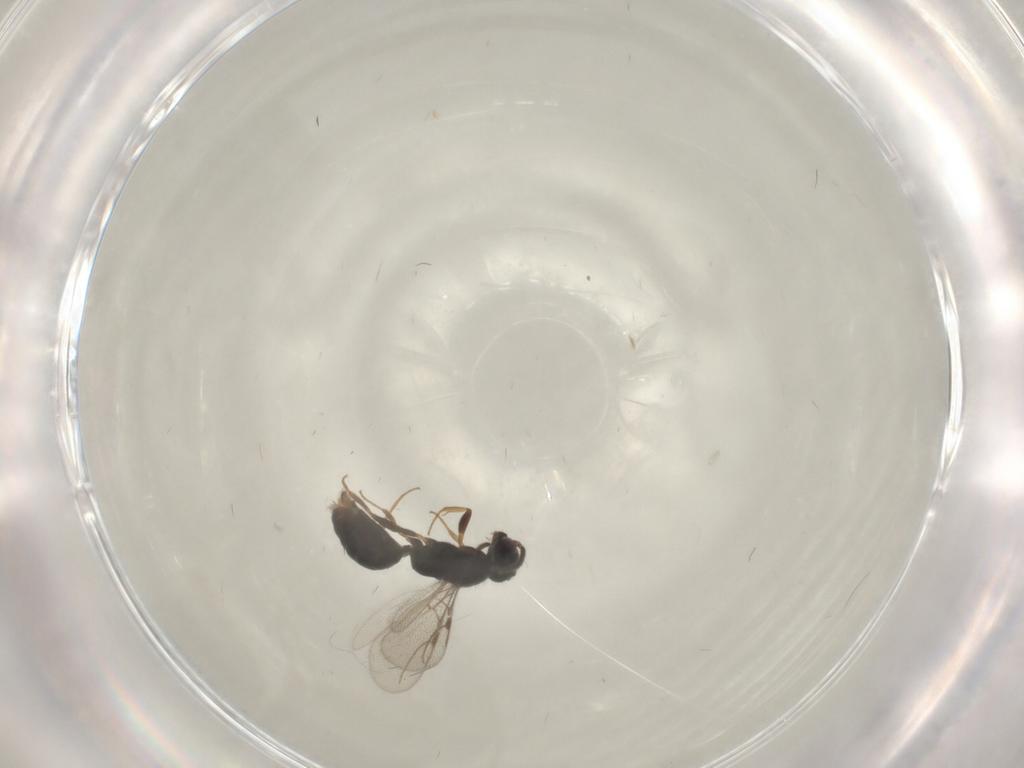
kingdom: Animalia
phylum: Arthropoda
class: Insecta
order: Hymenoptera
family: Bethylidae
